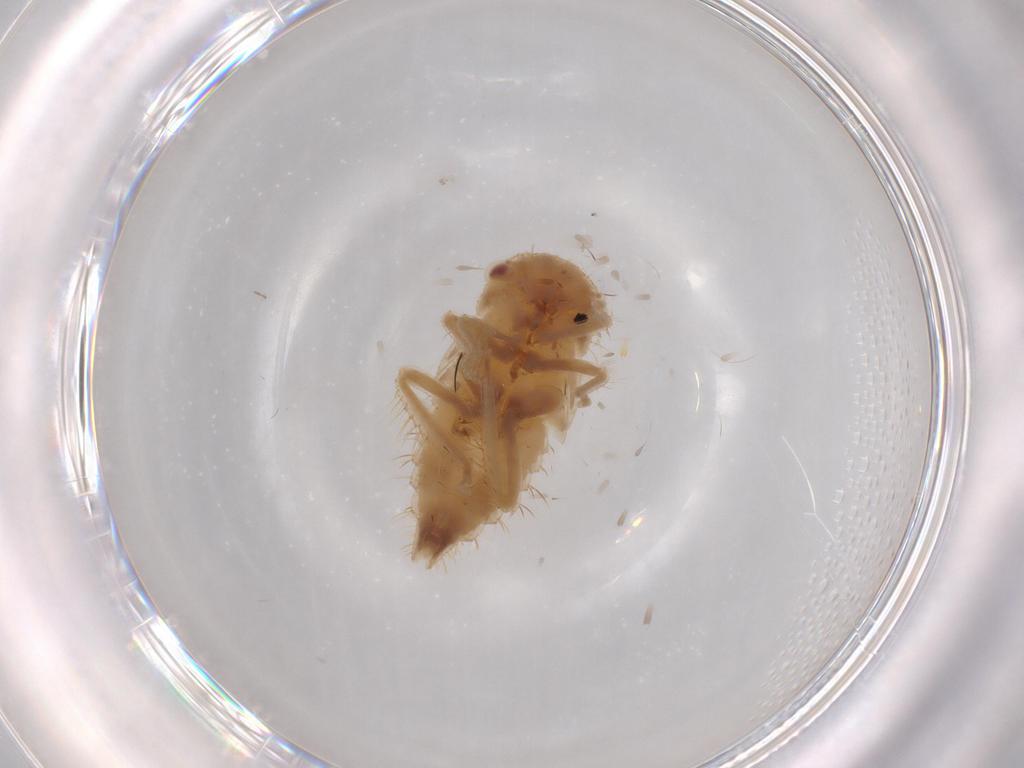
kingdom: Animalia
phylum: Arthropoda
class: Insecta
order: Hemiptera
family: Cicadellidae
